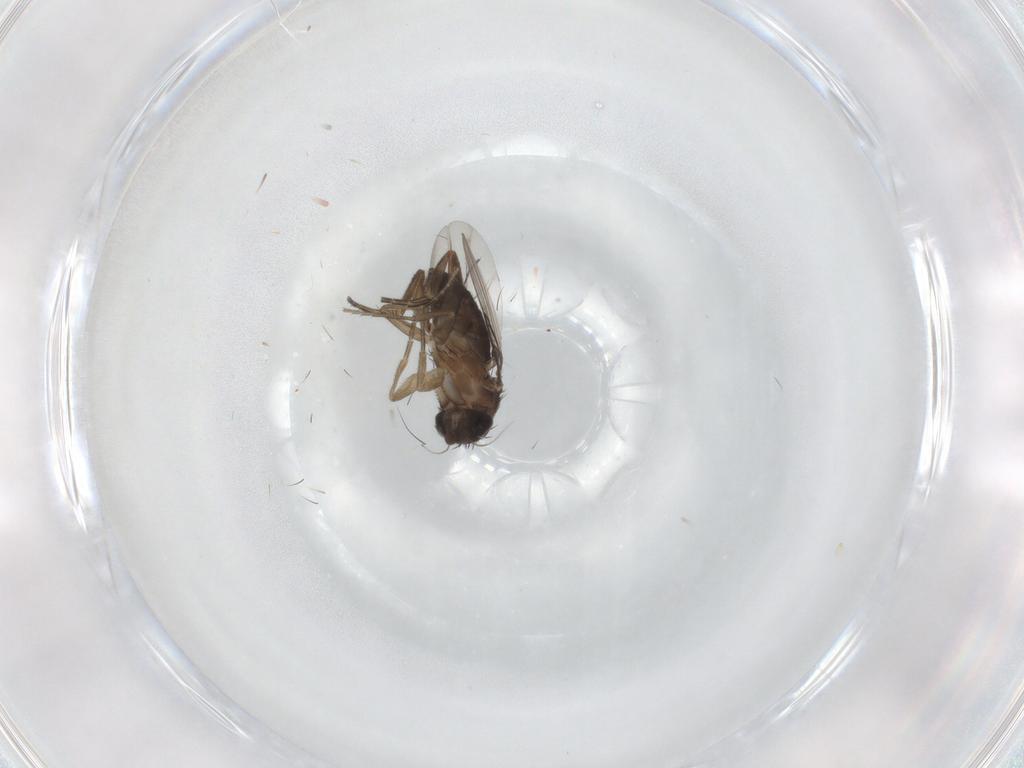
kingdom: Animalia
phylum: Arthropoda
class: Insecta
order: Diptera
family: Phoridae
